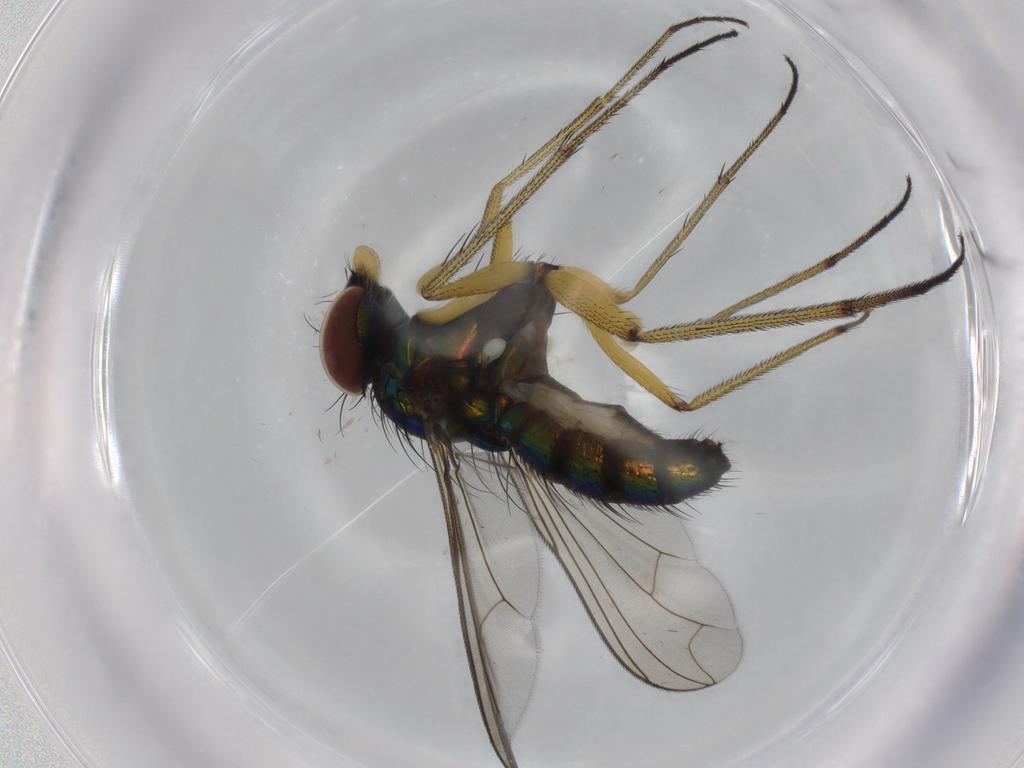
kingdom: Animalia
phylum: Arthropoda
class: Insecta
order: Diptera
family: Dolichopodidae
